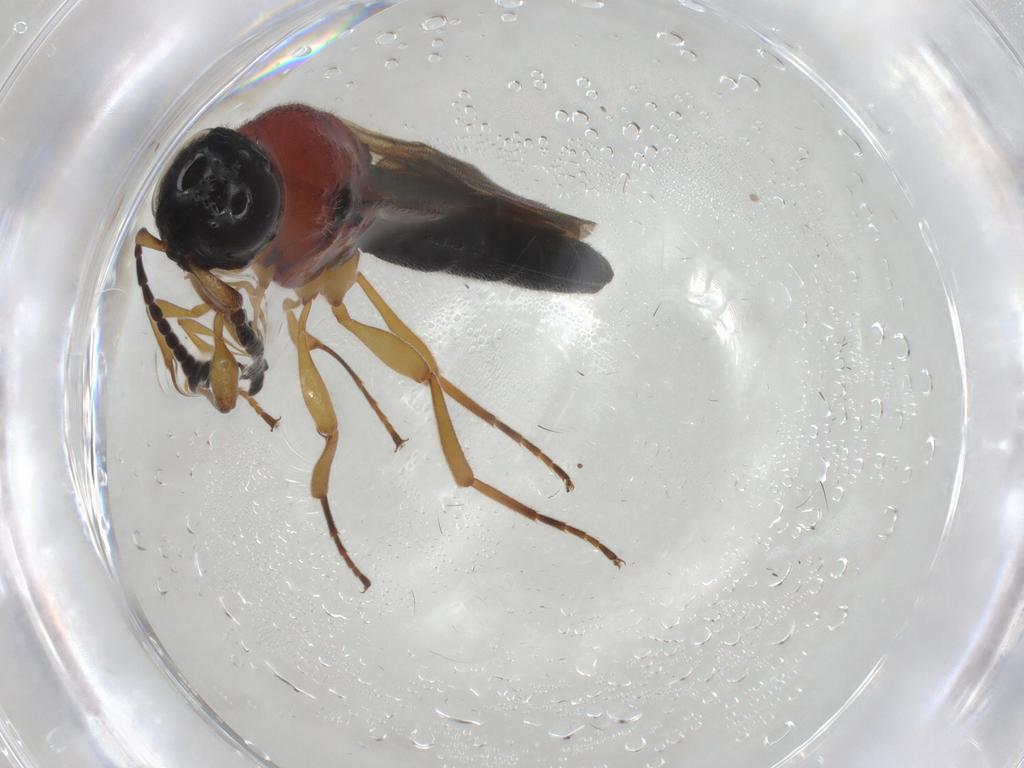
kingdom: Animalia
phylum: Arthropoda
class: Insecta
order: Hymenoptera
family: Scelionidae
